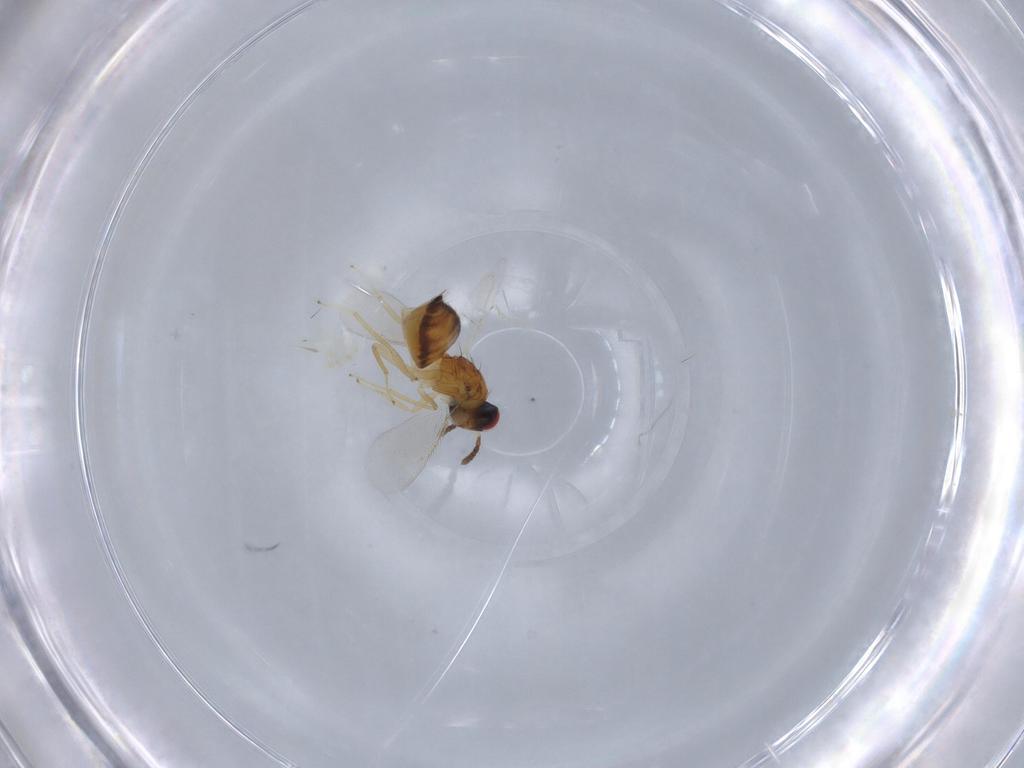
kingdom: Animalia
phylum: Arthropoda
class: Insecta
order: Hymenoptera
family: Eulophidae
